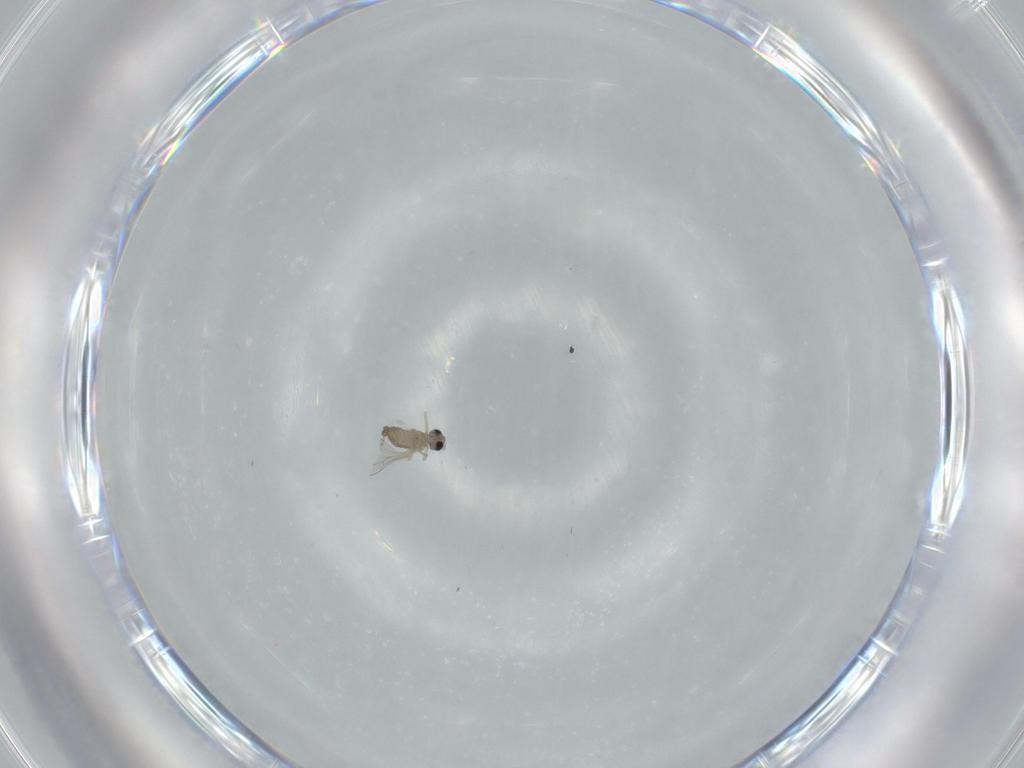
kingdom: Animalia
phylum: Arthropoda
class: Insecta
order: Diptera
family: Cecidomyiidae
